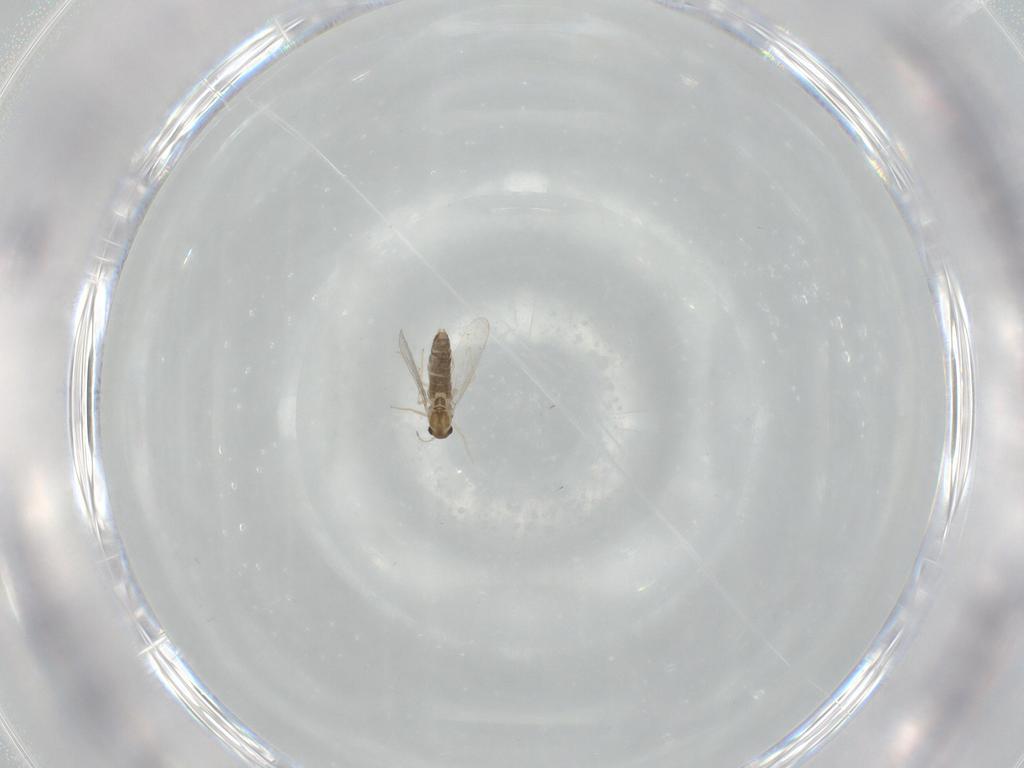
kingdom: Animalia
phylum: Arthropoda
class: Insecta
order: Diptera
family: Chironomidae
